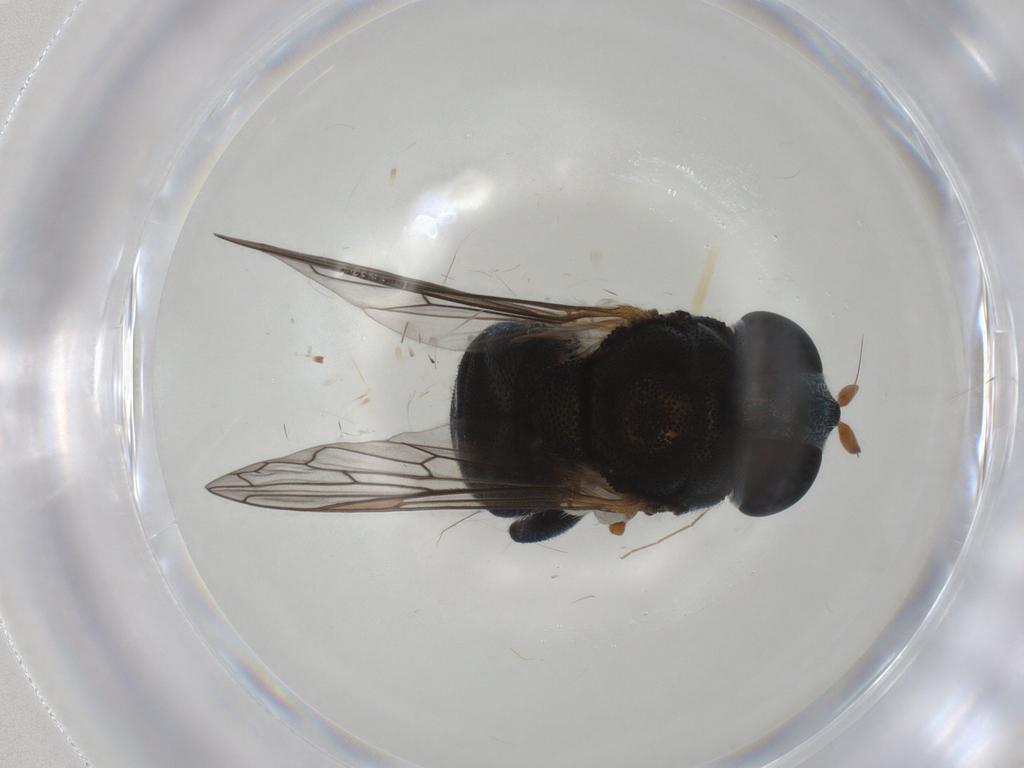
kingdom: Animalia
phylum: Arthropoda
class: Insecta
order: Diptera
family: Syrphidae
